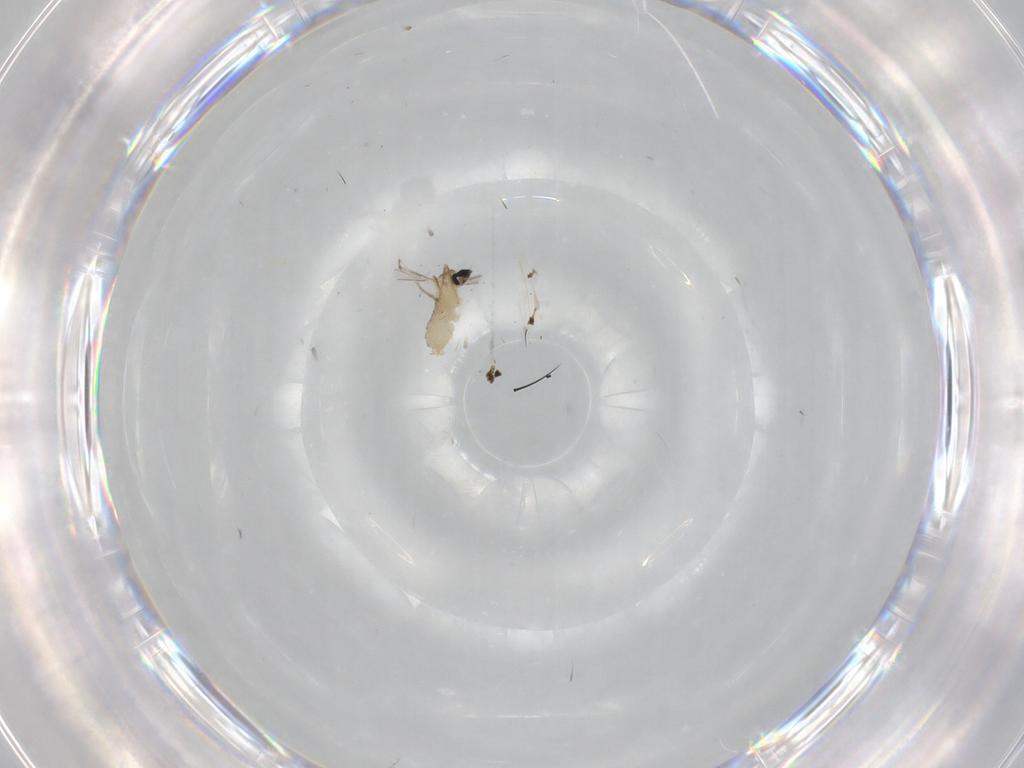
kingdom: Animalia
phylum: Arthropoda
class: Insecta
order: Diptera
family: Cecidomyiidae
